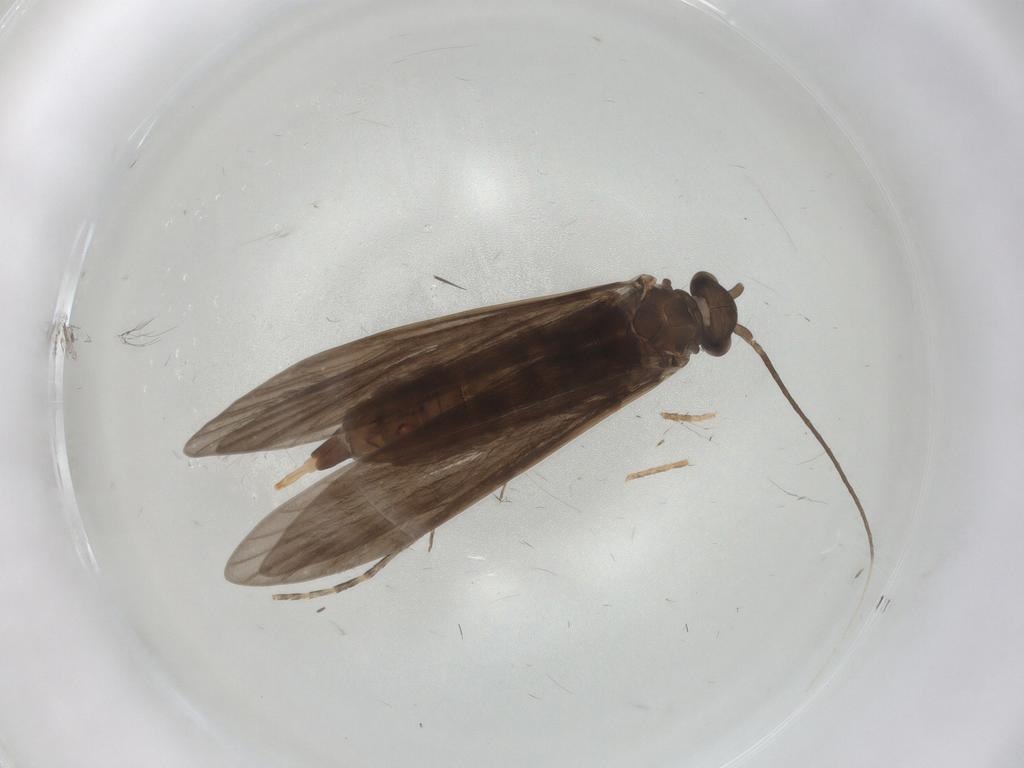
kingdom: Animalia
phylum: Arthropoda
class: Insecta
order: Trichoptera
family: Xiphocentronidae
